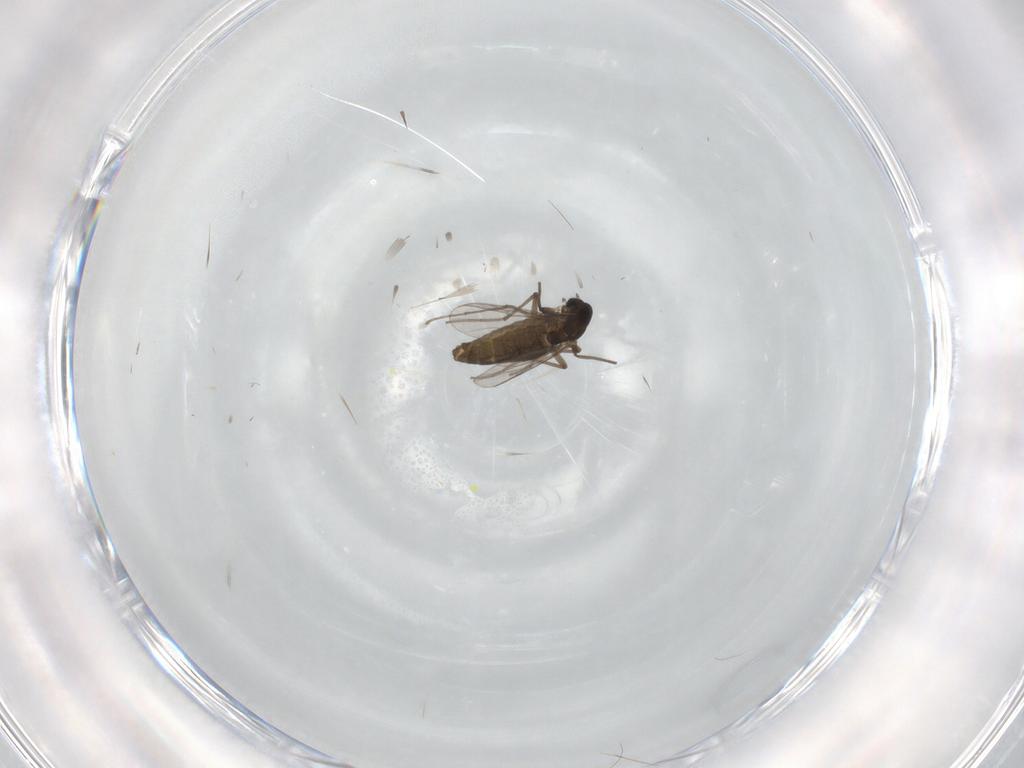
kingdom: Animalia
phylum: Arthropoda
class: Insecta
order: Diptera
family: Chironomidae
